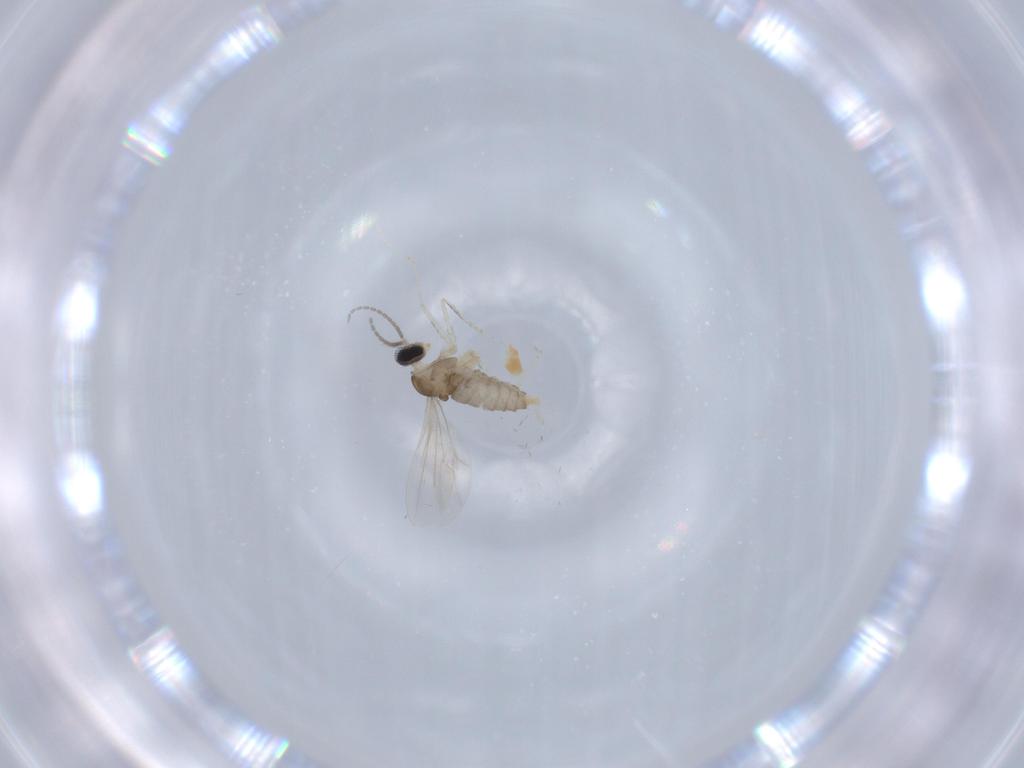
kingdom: Animalia
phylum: Arthropoda
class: Insecta
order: Diptera
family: Cecidomyiidae
